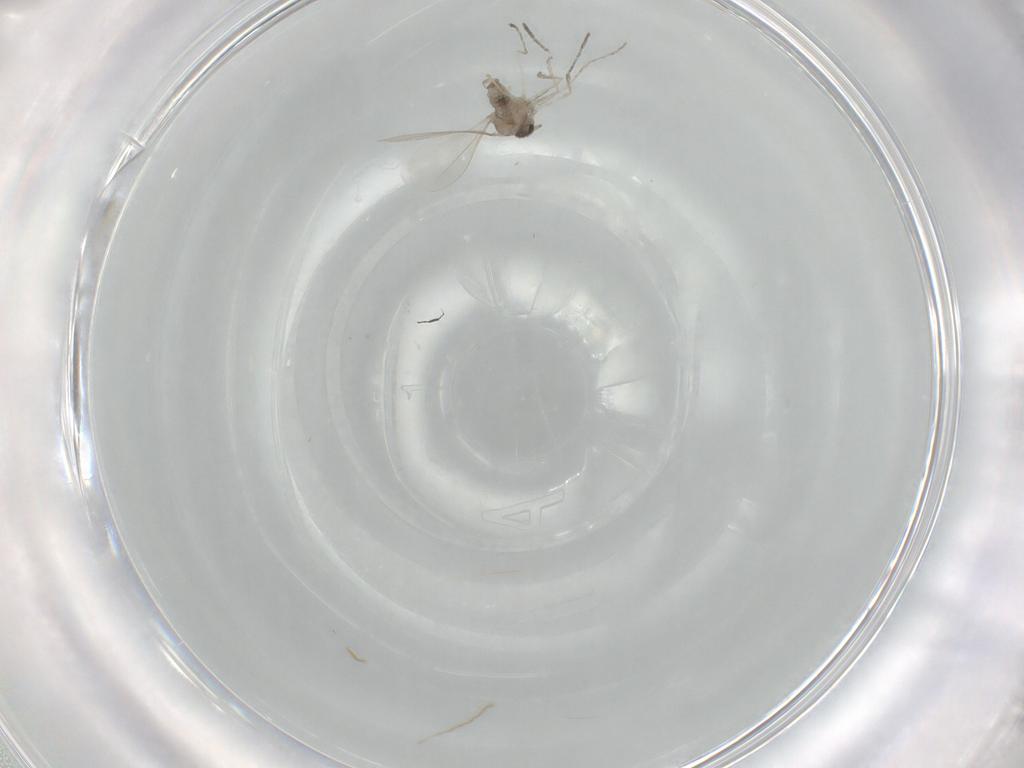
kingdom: Animalia
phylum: Arthropoda
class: Insecta
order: Diptera
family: Cecidomyiidae
